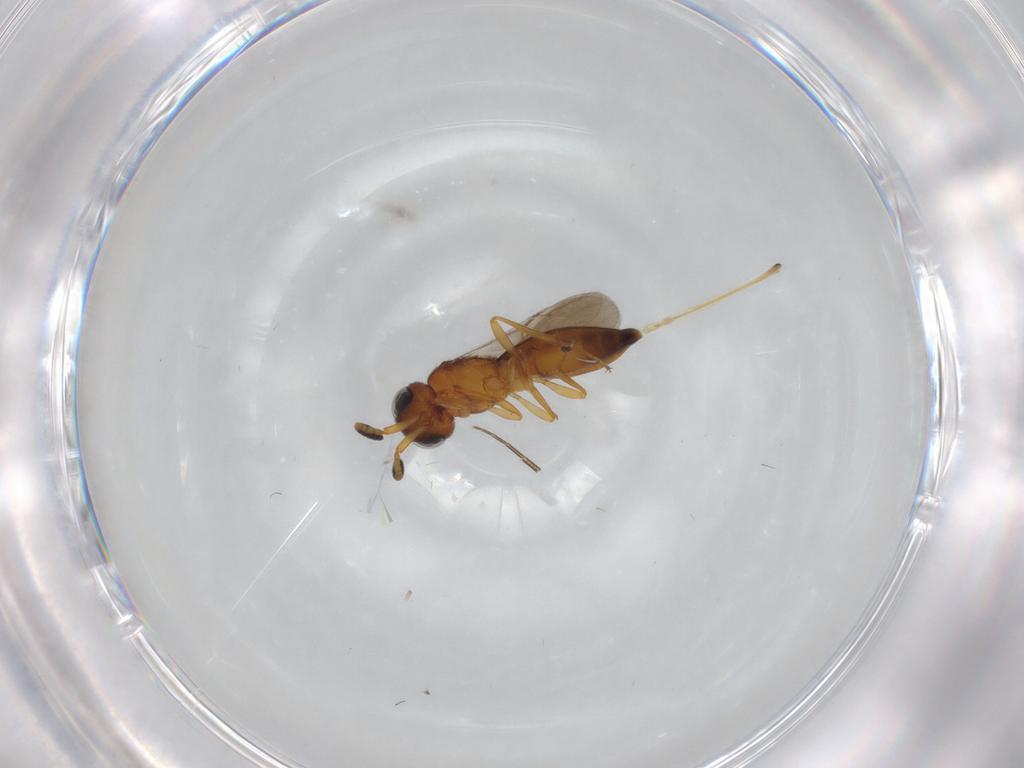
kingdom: Animalia
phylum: Arthropoda
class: Insecta
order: Hymenoptera
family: Scelionidae
